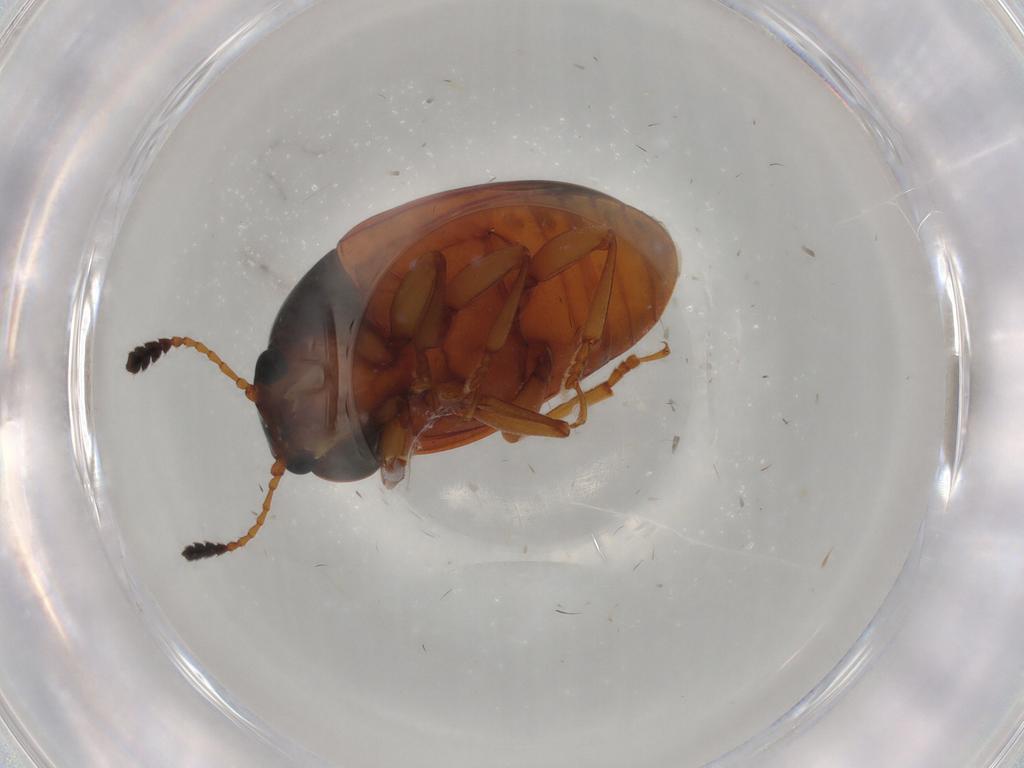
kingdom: Animalia
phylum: Arthropoda
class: Insecta
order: Coleoptera
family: Erotylidae
